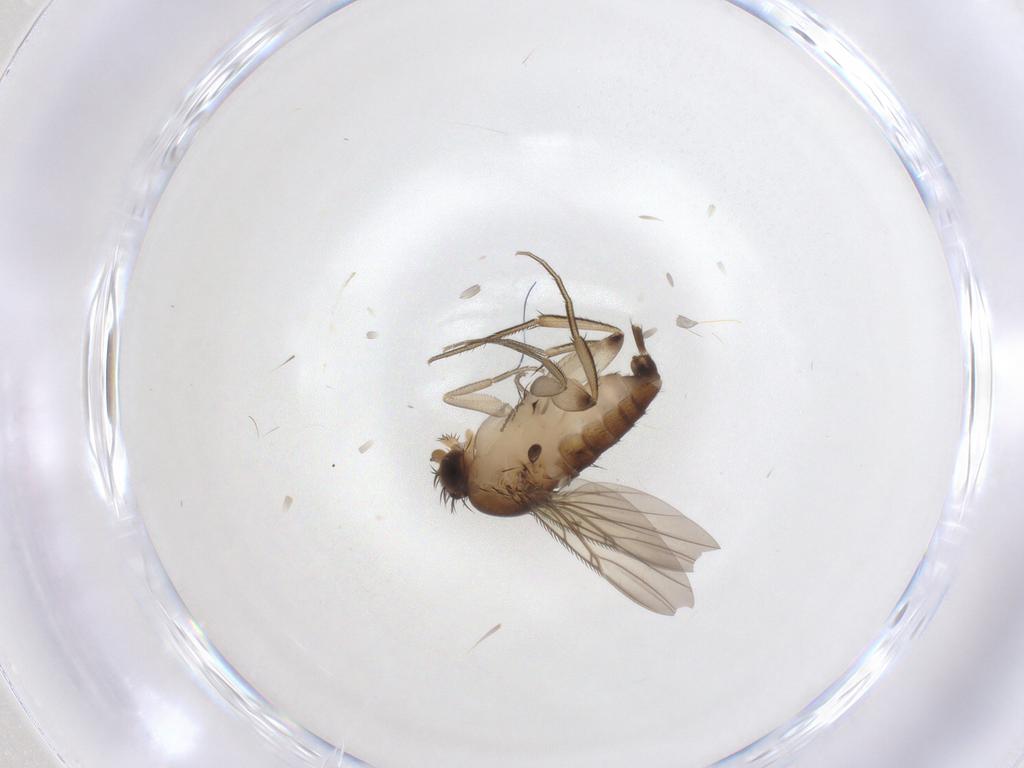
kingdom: Animalia
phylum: Arthropoda
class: Insecta
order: Diptera
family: Phoridae
